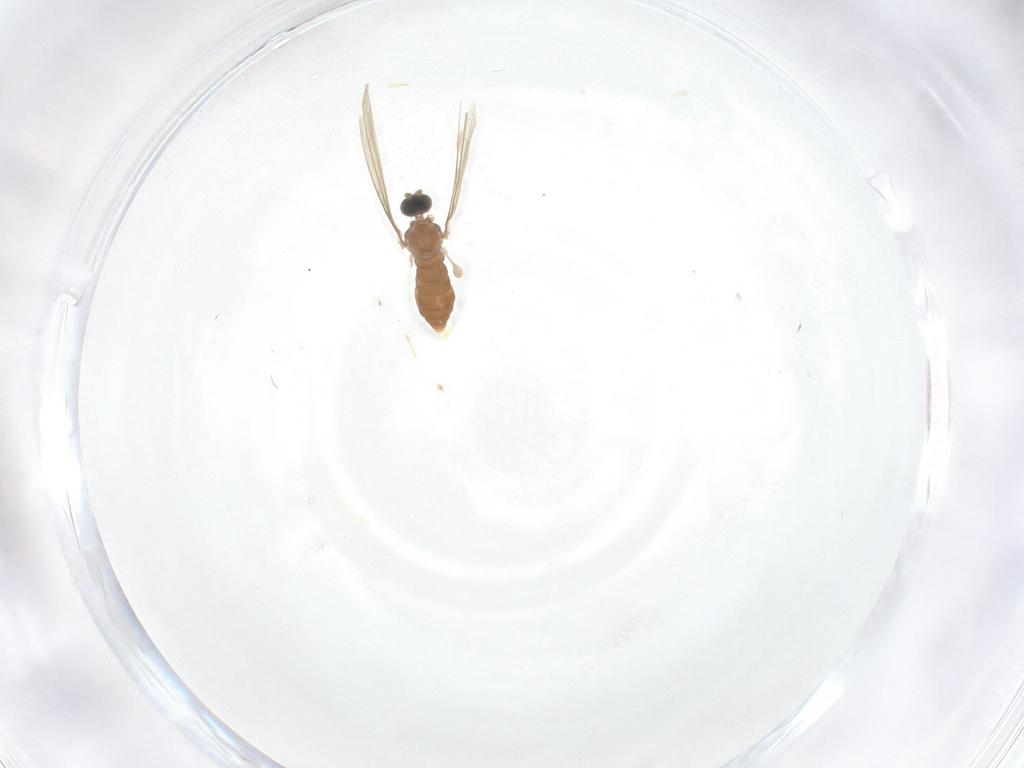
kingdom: Animalia
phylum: Arthropoda
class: Insecta
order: Diptera
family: Cecidomyiidae
